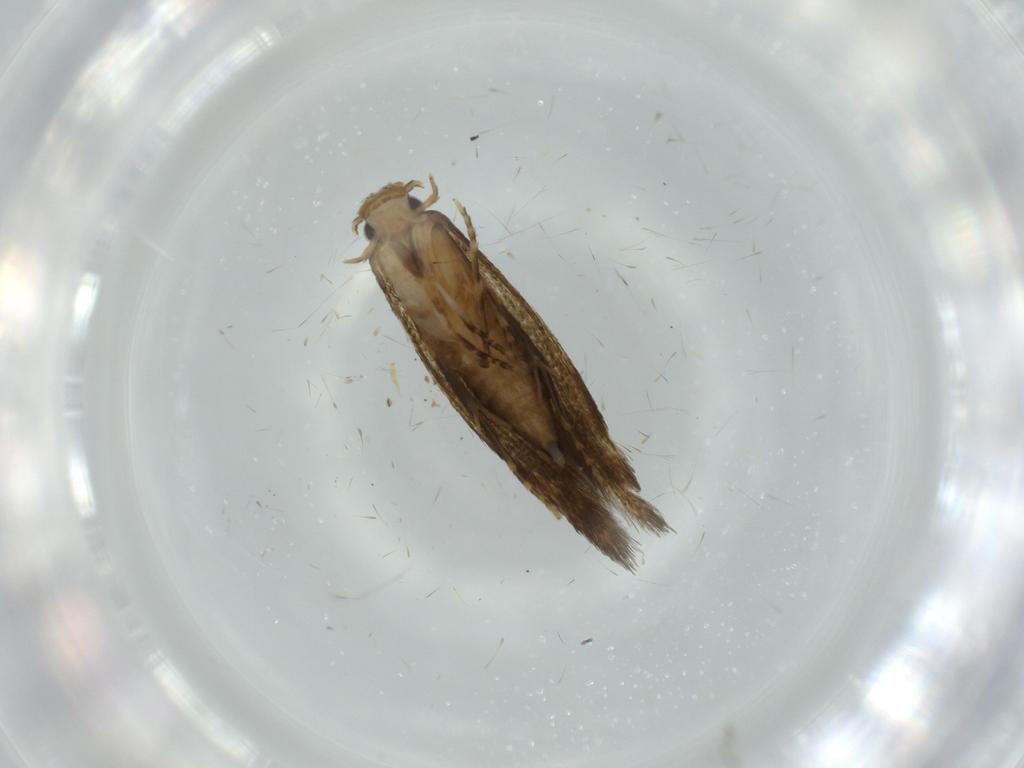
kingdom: Animalia
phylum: Arthropoda
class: Insecta
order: Lepidoptera
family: Tineidae
